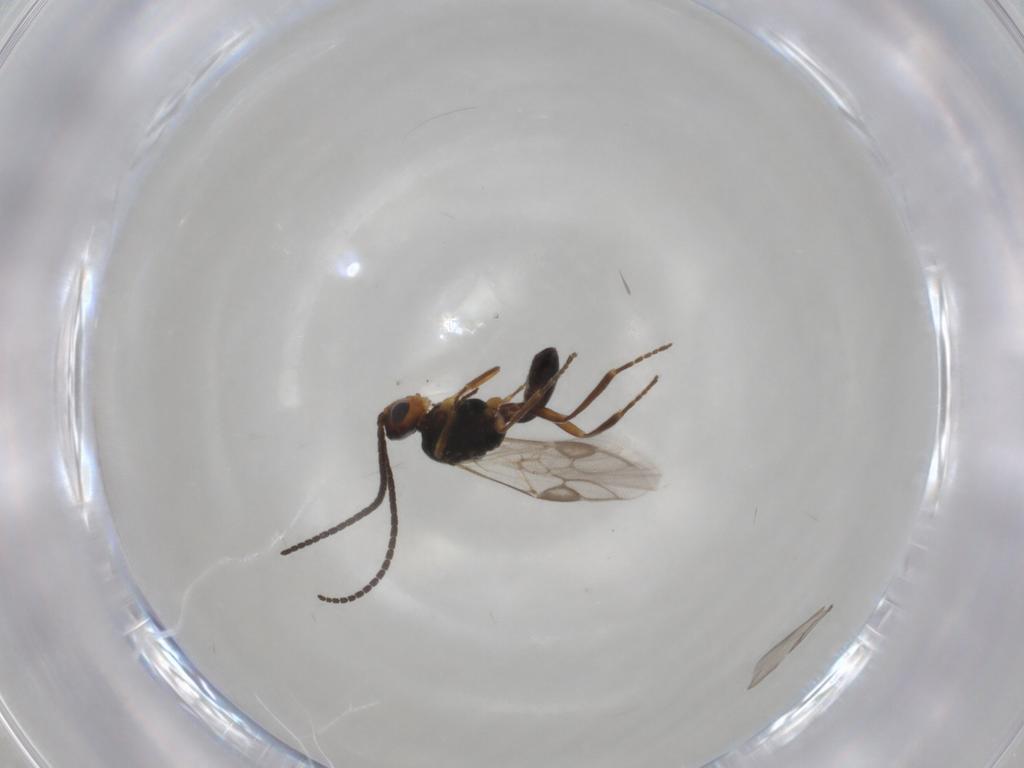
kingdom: Animalia
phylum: Arthropoda
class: Insecta
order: Hymenoptera
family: Braconidae
